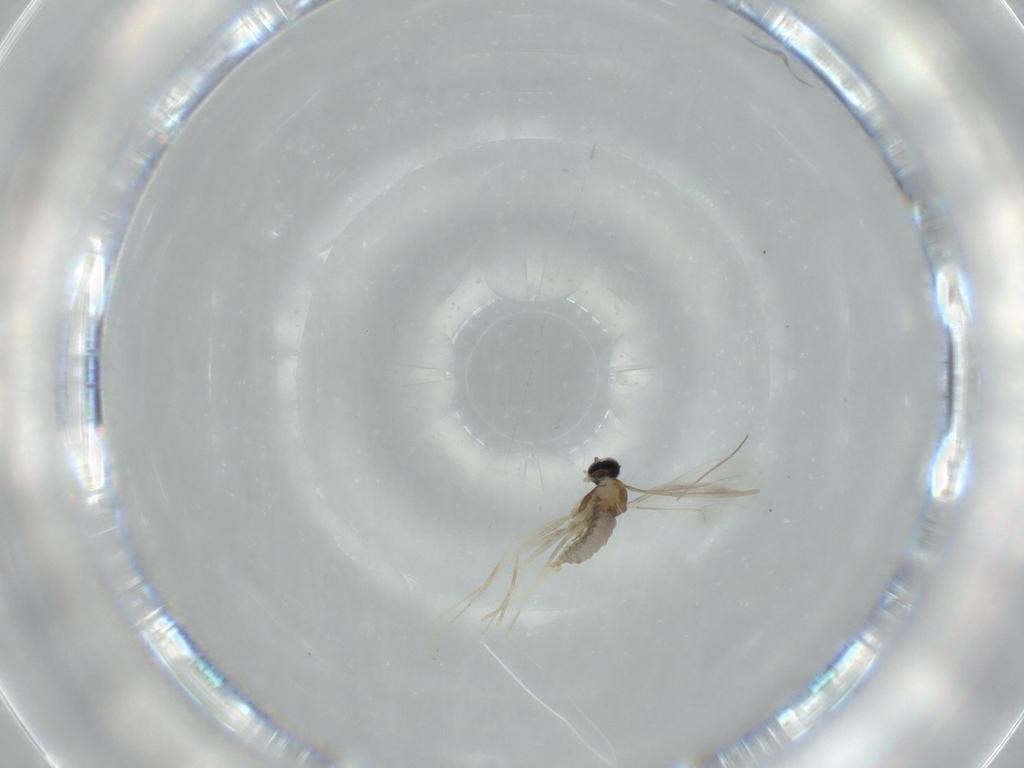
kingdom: Animalia
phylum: Arthropoda
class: Insecta
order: Diptera
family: Cecidomyiidae
